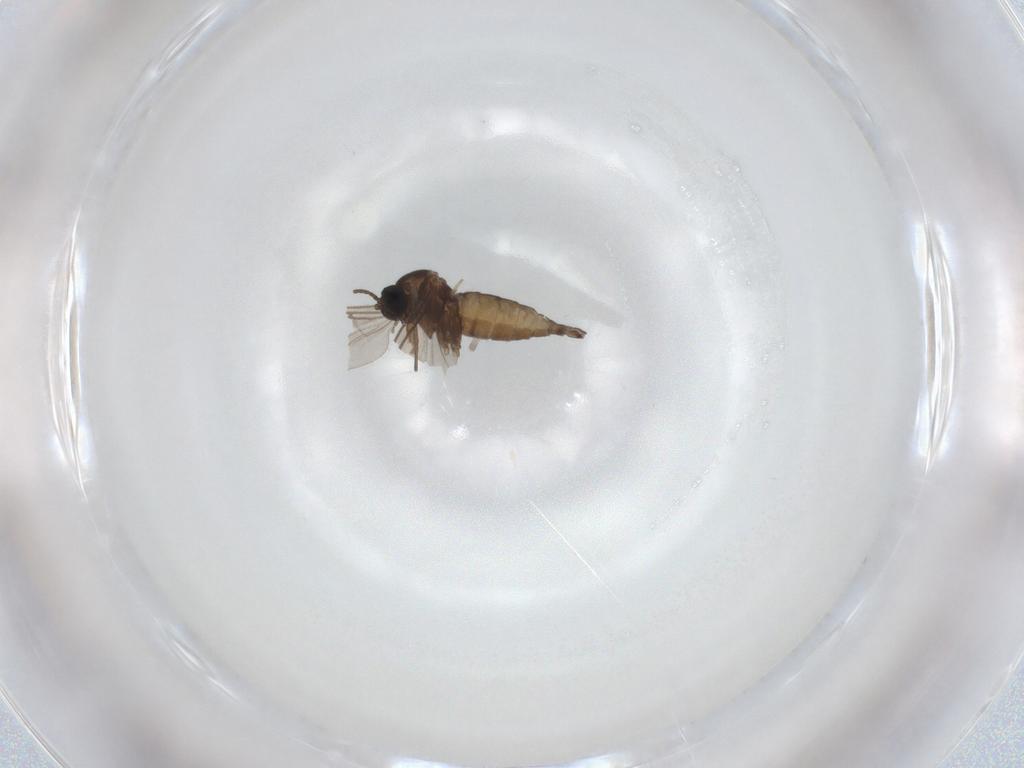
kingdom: Animalia
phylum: Arthropoda
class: Insecta
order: Diptera
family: Sciaridae
